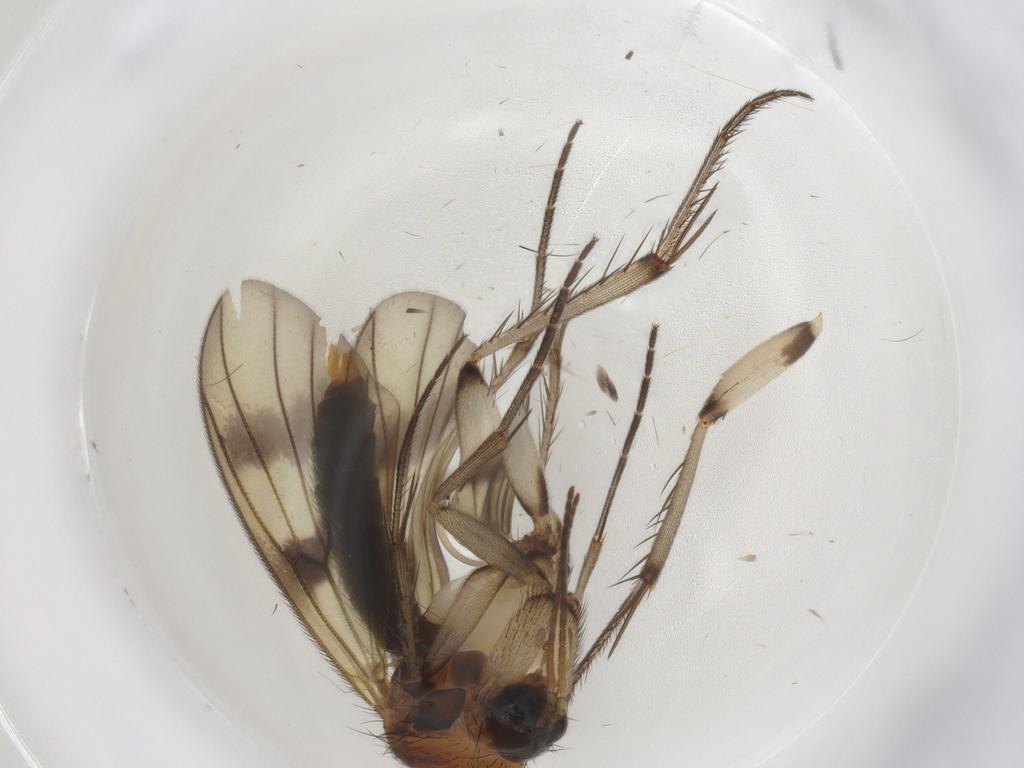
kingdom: Animalia
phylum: Arthropoda
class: Insecta
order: Diptera
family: Mycetophilidae
